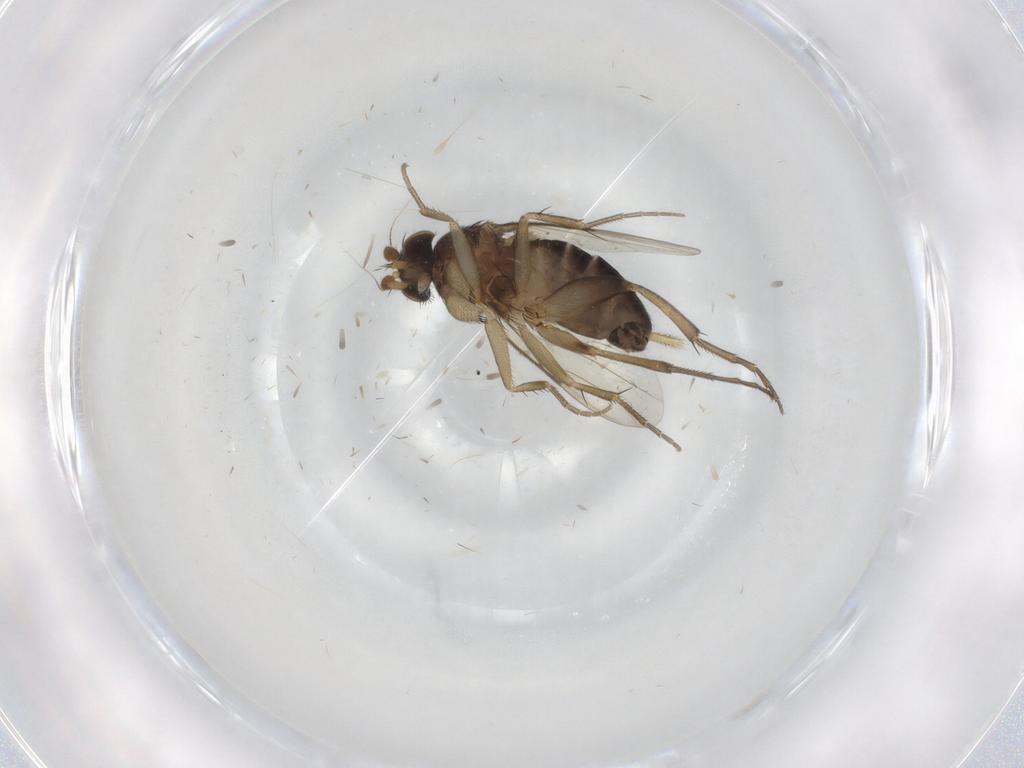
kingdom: Animalia
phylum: Arthropoda
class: Insecta
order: Diptera
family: Phoridae
